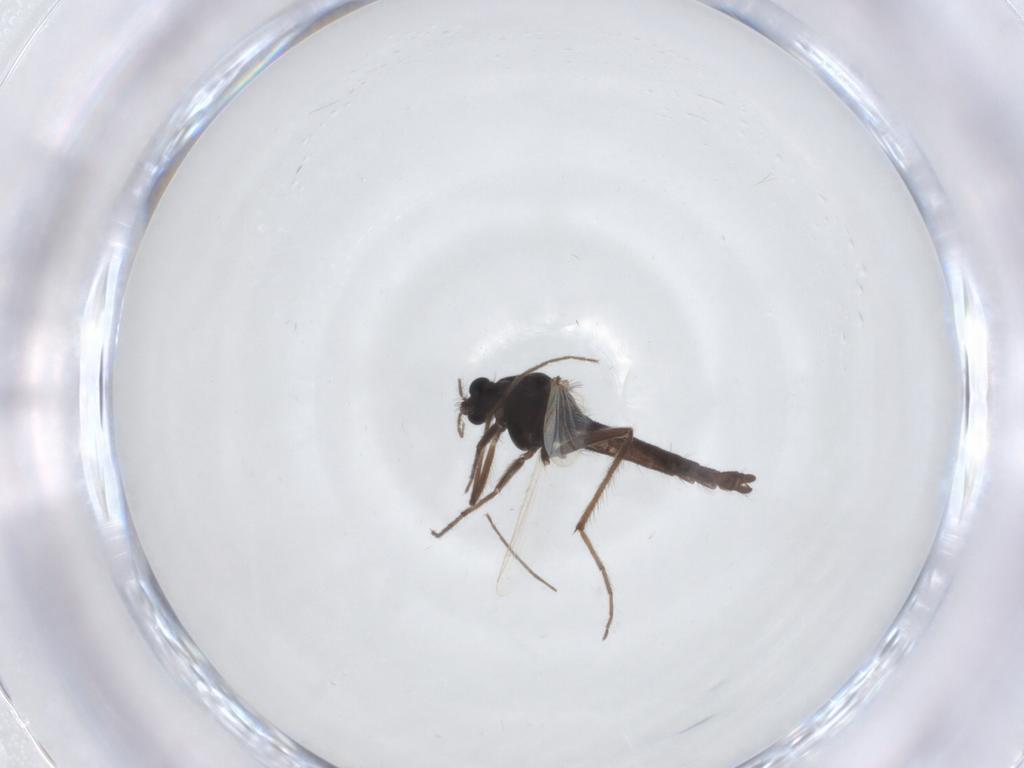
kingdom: Animalia
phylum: Arthropoda
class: Insecta
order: Diptera
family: Chironomidae
